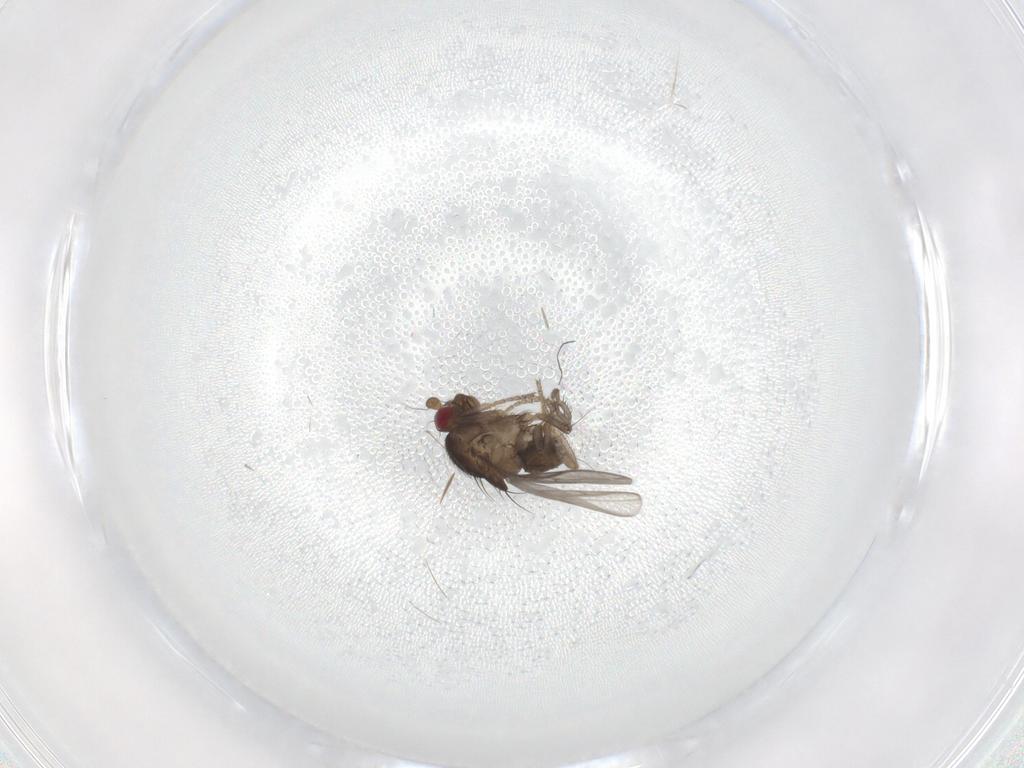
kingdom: Animalia
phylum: Arthropoda
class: Insecta
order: Diptera
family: Sphaeroceridae
